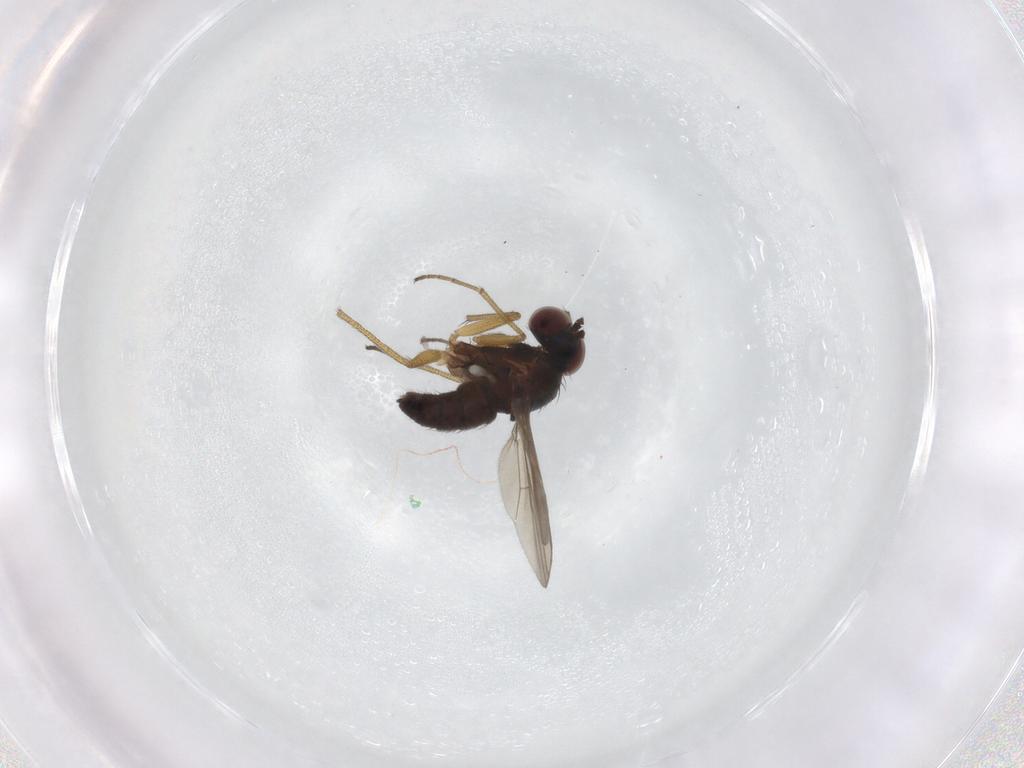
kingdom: Animalia
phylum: Arthropoda
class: Insecta
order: Diptera
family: Dolichopodidae
